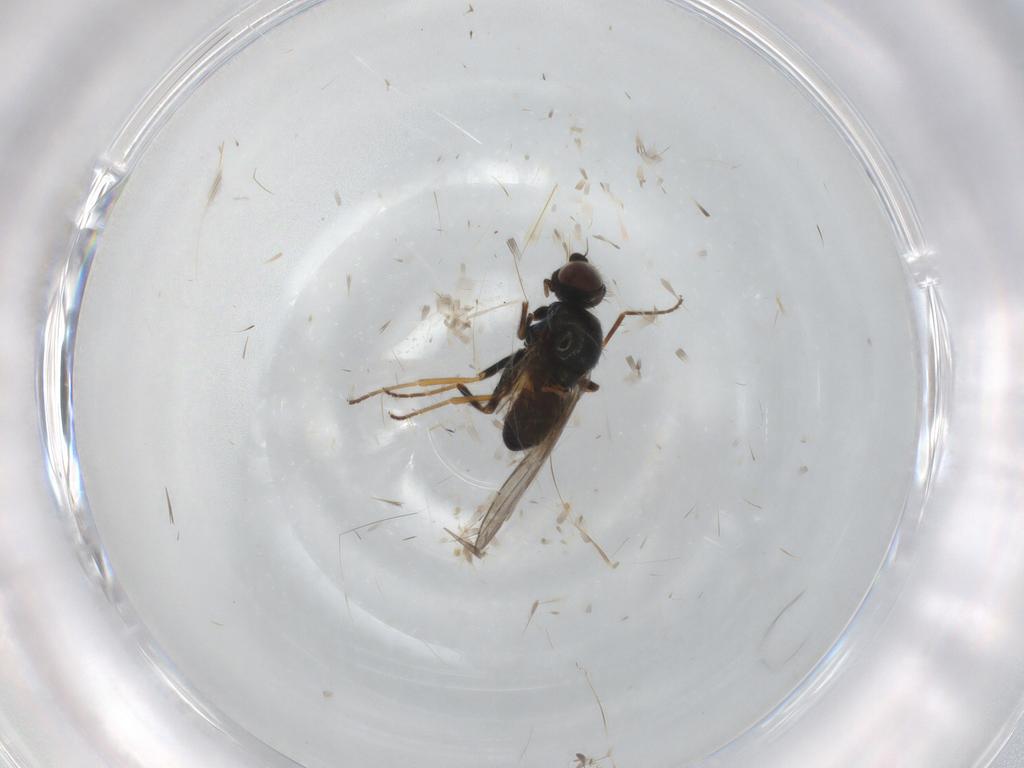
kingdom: Animalia
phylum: Arthropoda
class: Insecta
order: Diptera
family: Chloropidae
